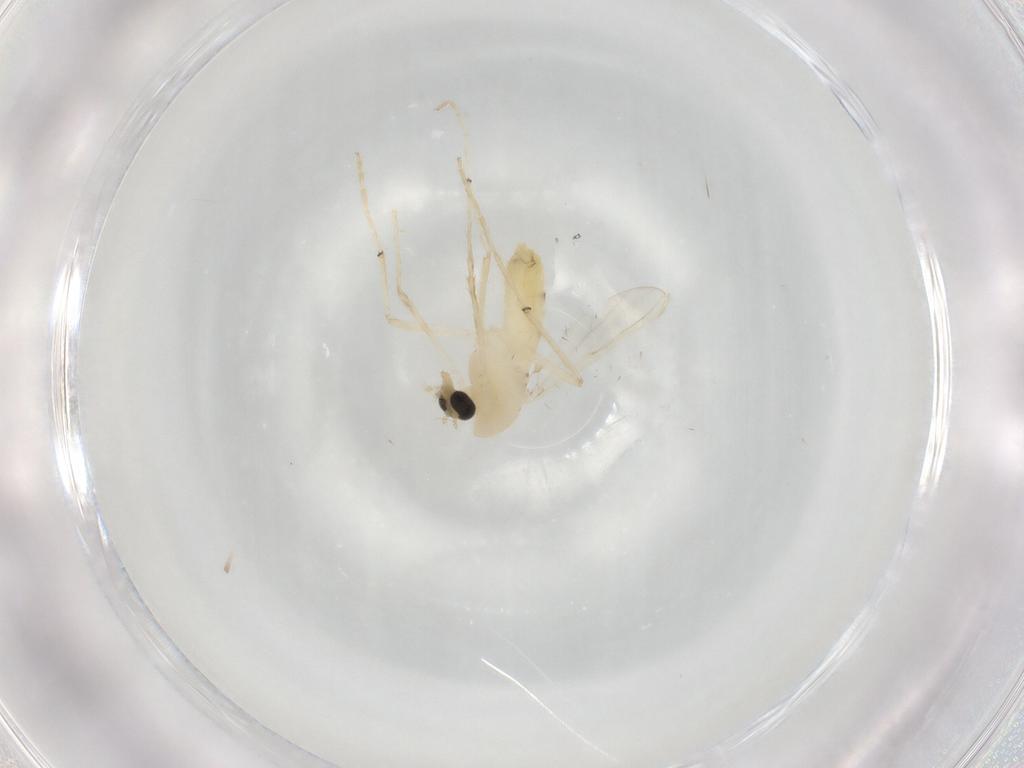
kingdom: Animalia
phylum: Arthropoda
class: Insecta
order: Diptera
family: Chironomidae
